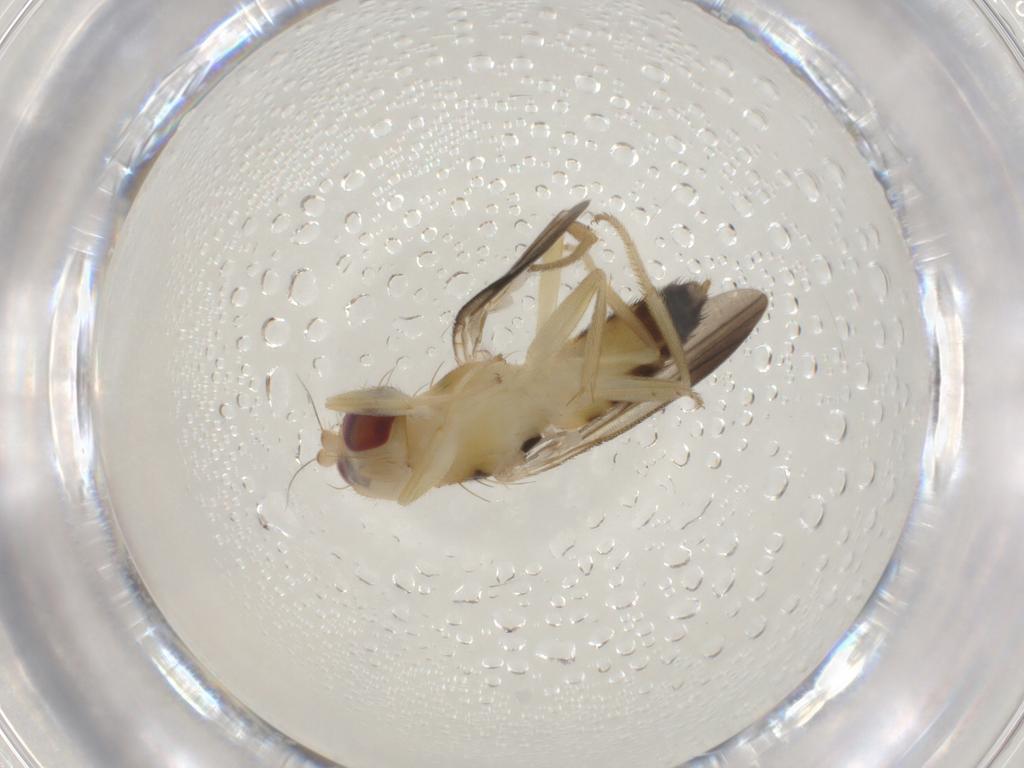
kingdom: Animalia
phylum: Arthropoda
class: Insecta
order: Diptera
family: Clusiidae
